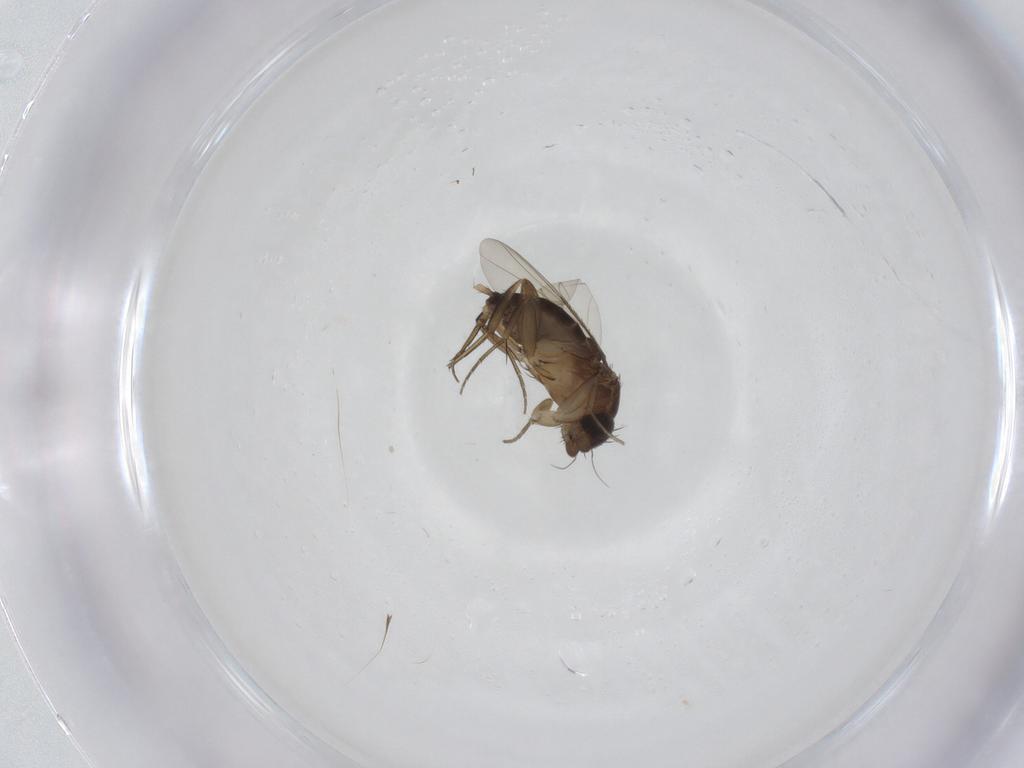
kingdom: Animalia
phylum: Arthropoda
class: Insecta
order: Diptera
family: Phoridae
